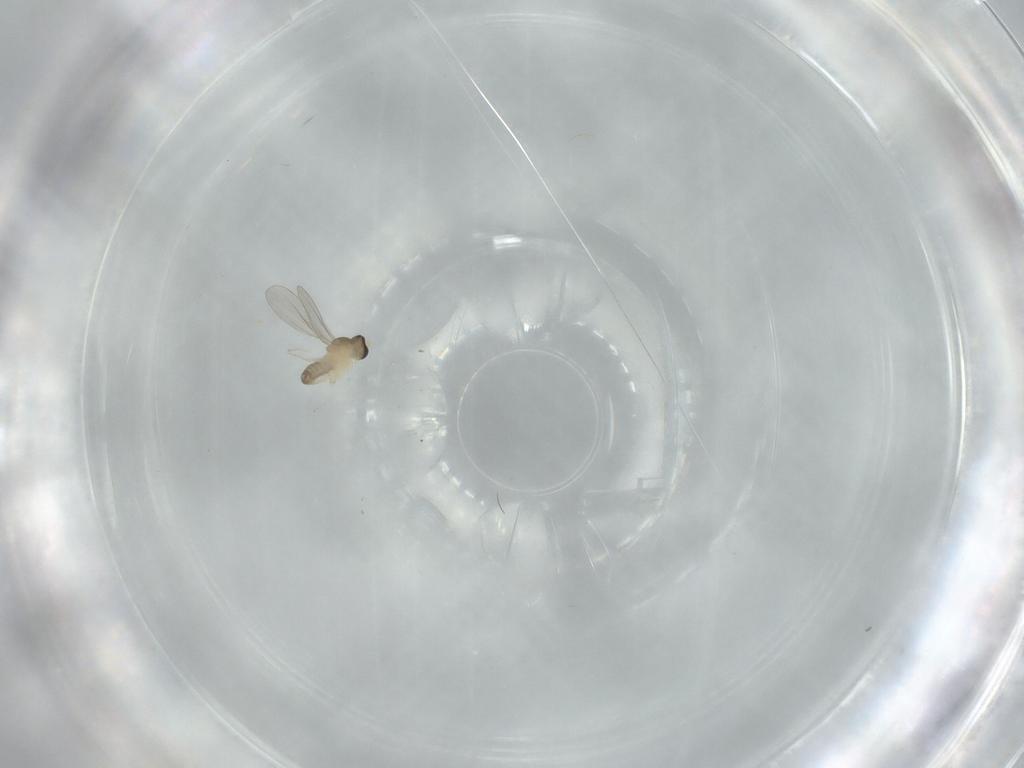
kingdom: Animalia
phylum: Arthropoda
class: Insecta
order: Diptera
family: Cecidomyiidae
